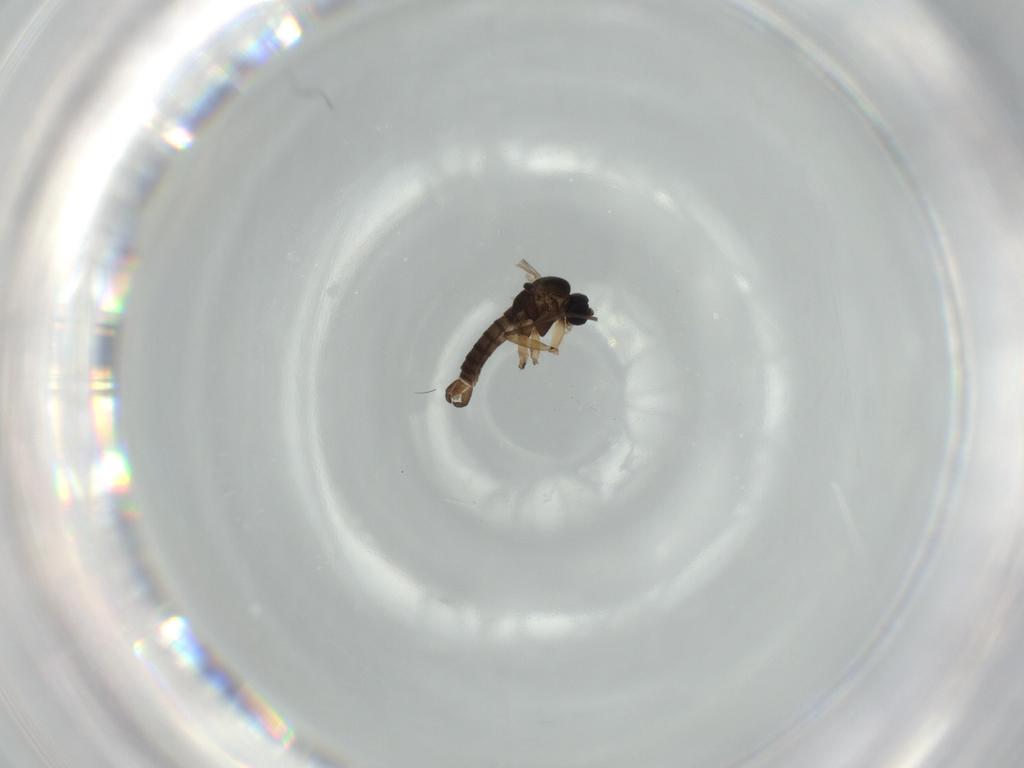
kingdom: Animalia
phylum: Arthropoda
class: Insecta
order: Diptera
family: Sciaridae
